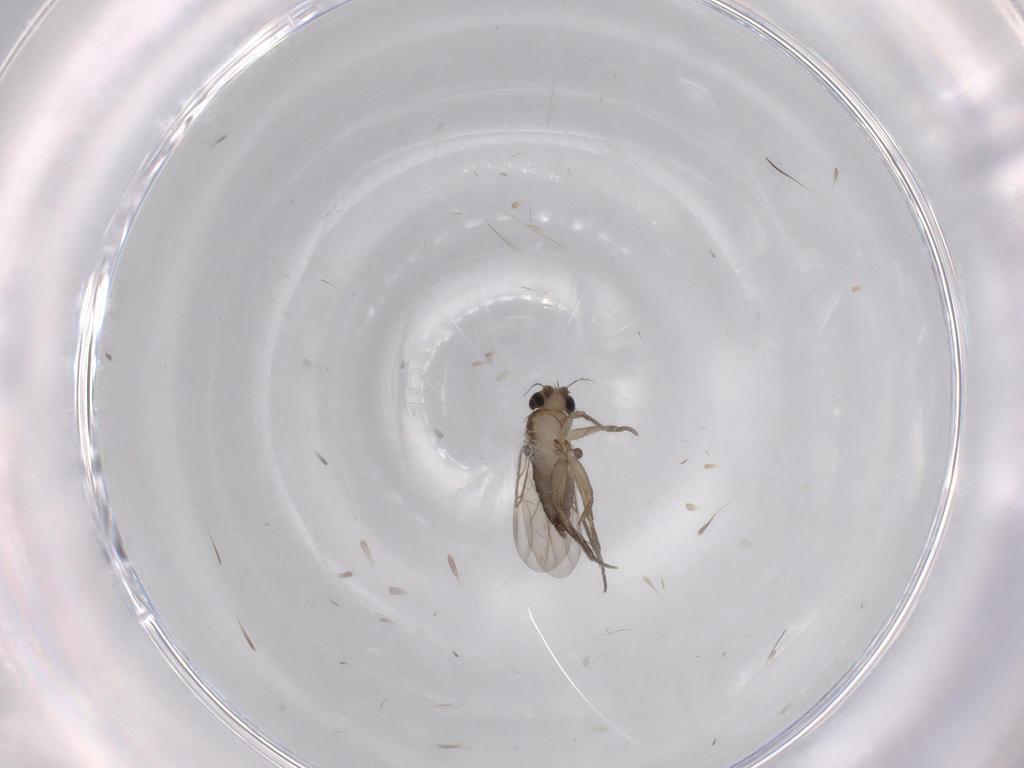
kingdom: Animalia
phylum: Arthropoda
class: Insecta
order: Diptera
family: Phoridae
